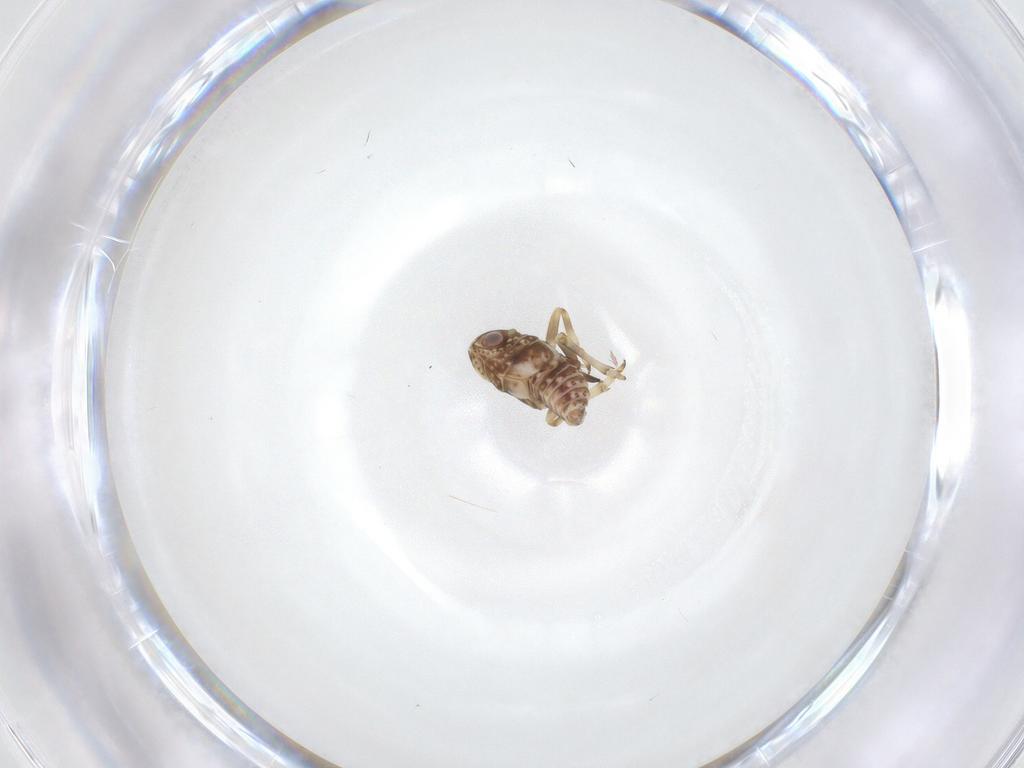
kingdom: Animalia
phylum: Arthropoda
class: Insecta
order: Hemiptera
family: Tropiduchidae
